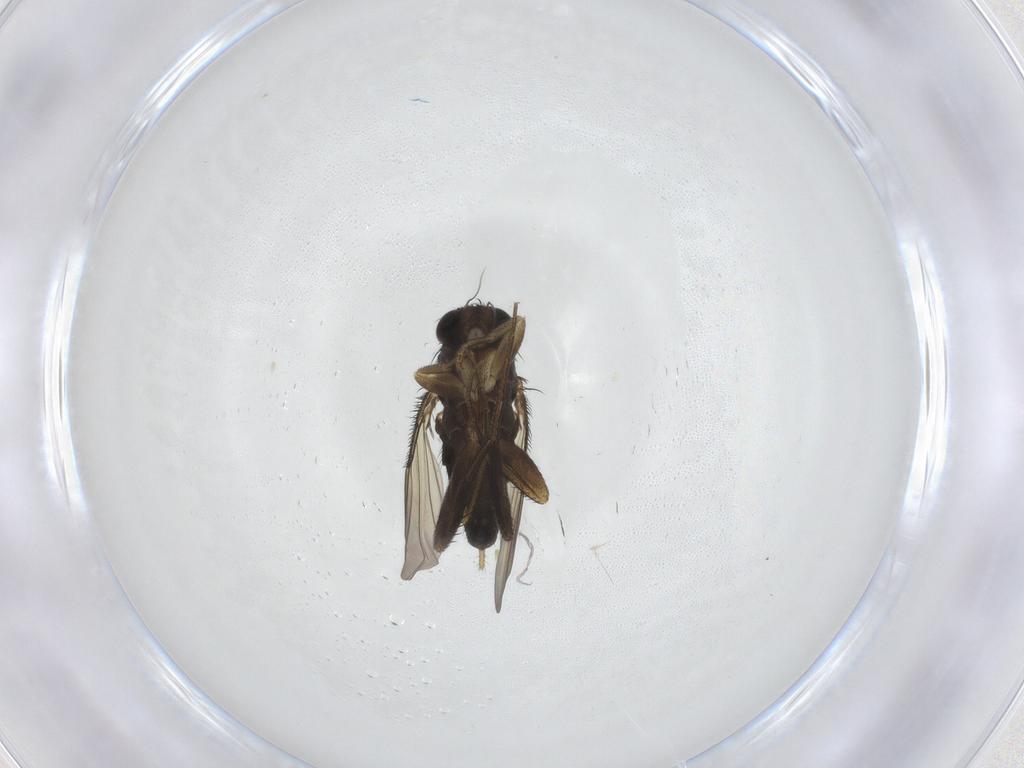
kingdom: Animalia
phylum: Arthropoda
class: Insecta
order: Diptera
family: Phoridae
